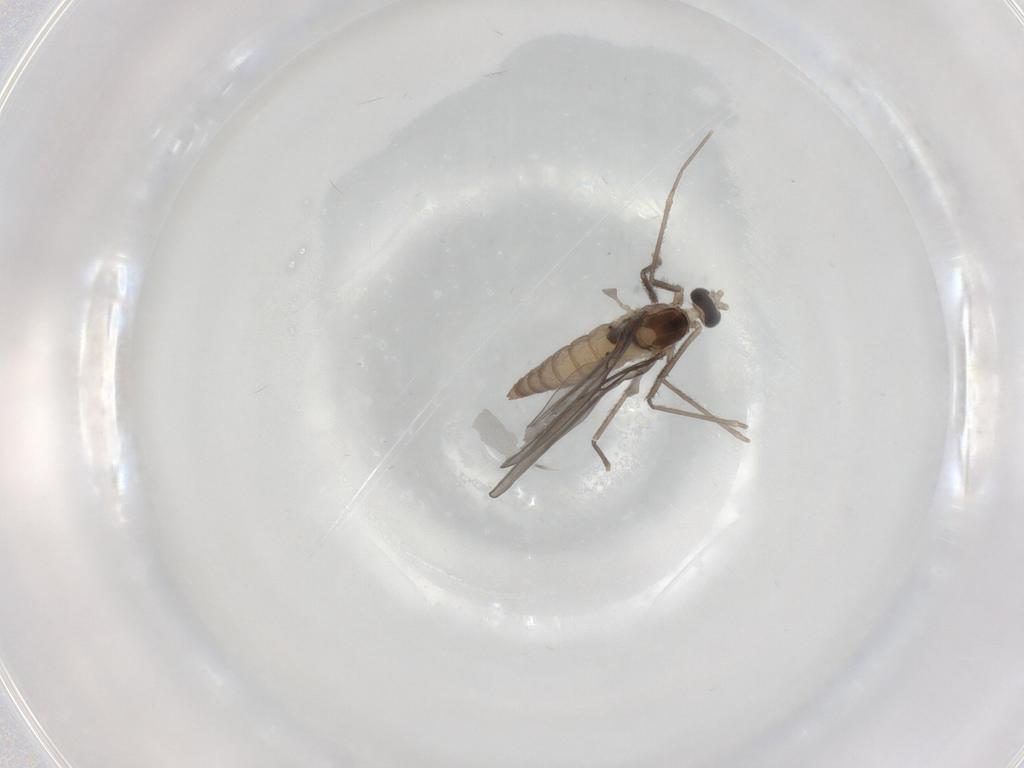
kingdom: Animalia
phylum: Arthropoda
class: Insecta
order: Diptera
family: Cecidomyiidae
